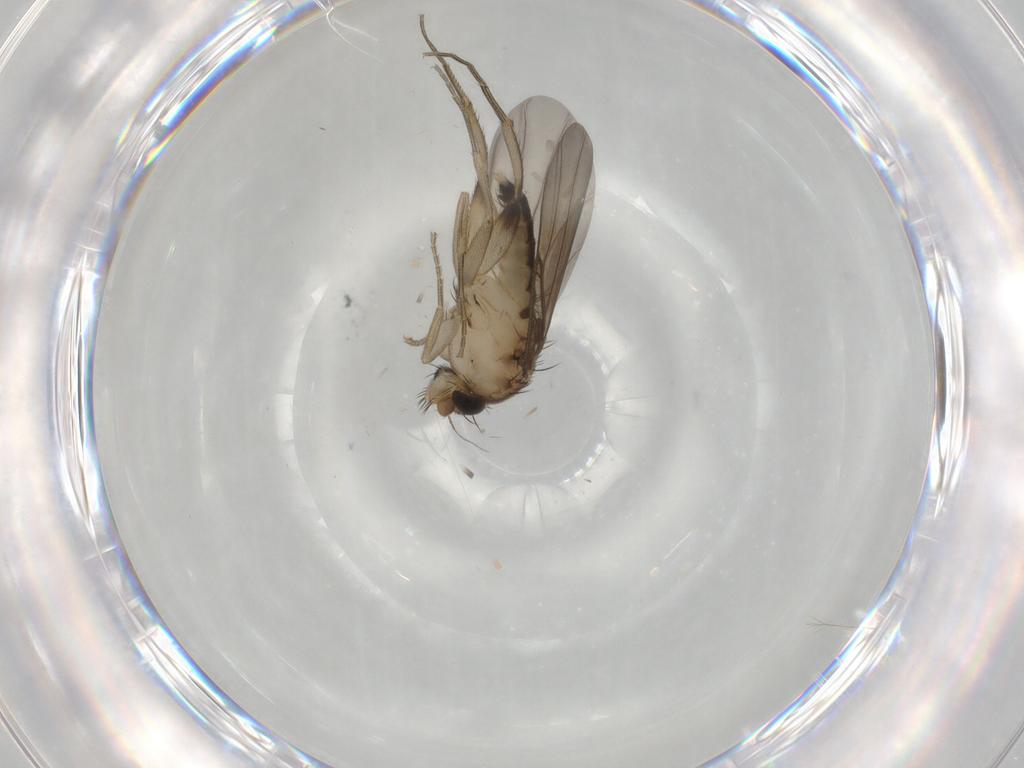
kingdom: Animalia
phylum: Arthropoda
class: Insecta
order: Diptera
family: Phoridae
